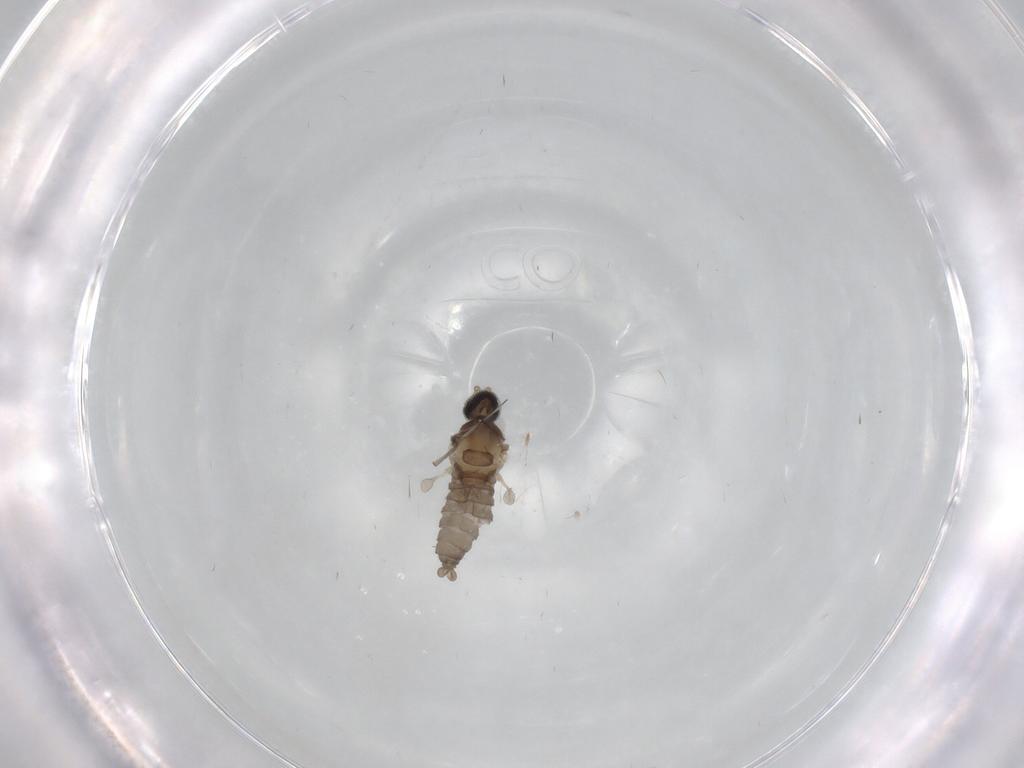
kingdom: Animalia
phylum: Arthropoda
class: Insecta
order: Diptera
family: Cecidomyiidae
